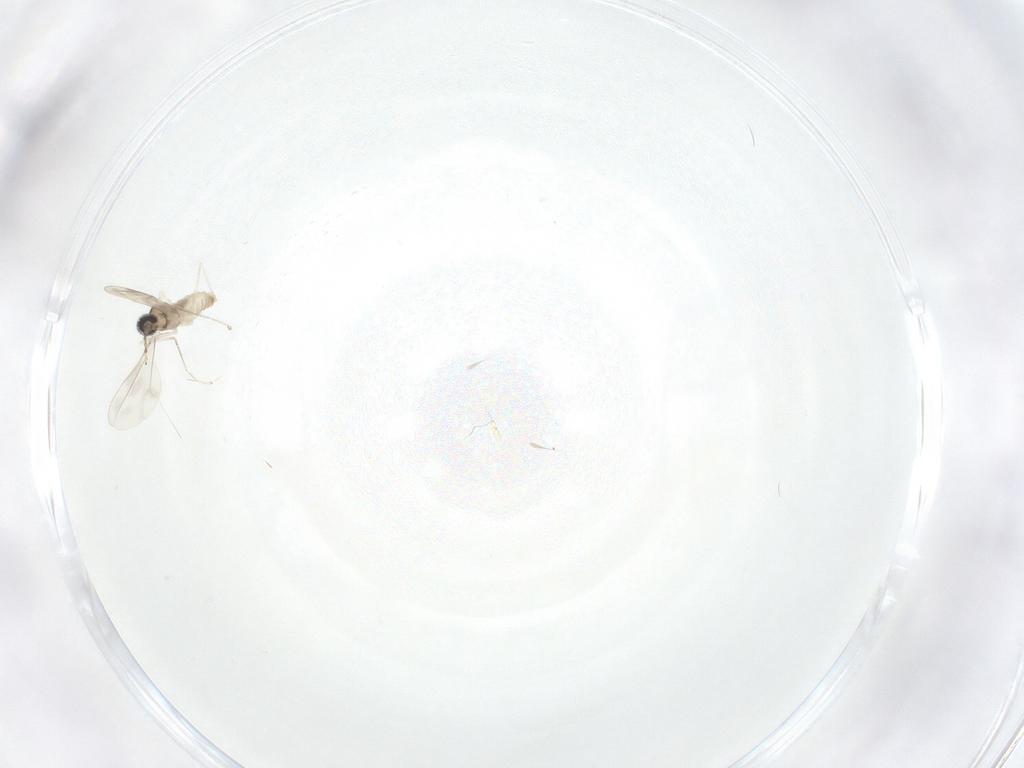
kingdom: Animalia
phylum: Arthropoda
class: Insecta
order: Diptera
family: Cecidomyiidae
